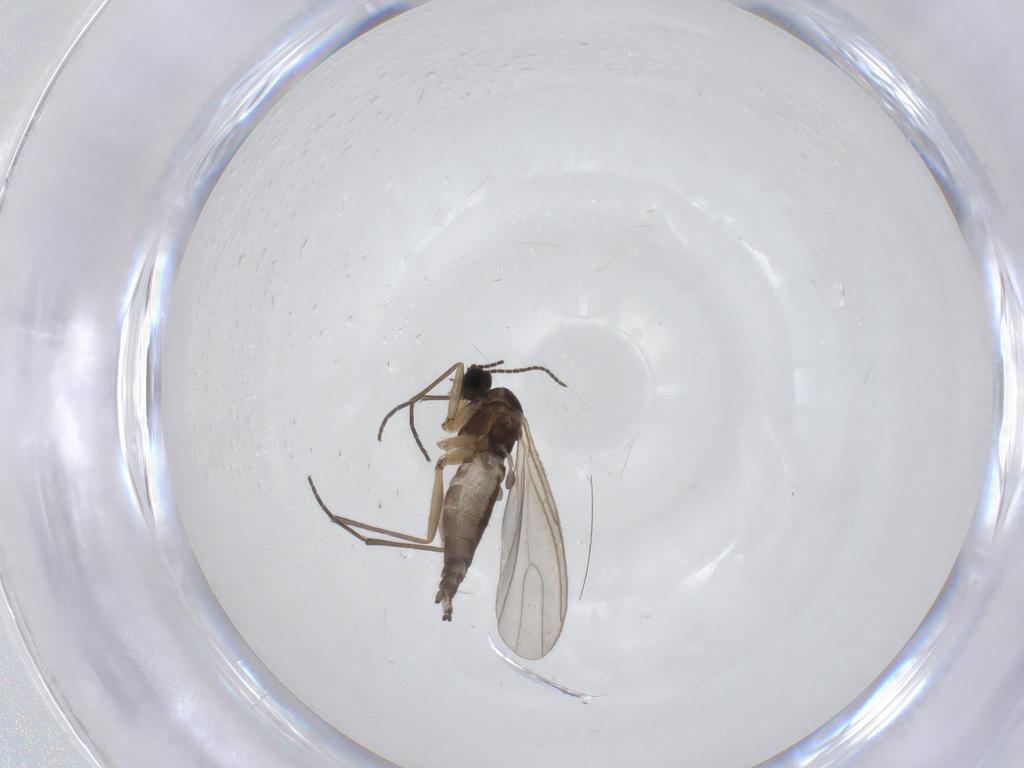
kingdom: Animalia
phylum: Arthropoda
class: Insecta
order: Diptera
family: Sciaridae
